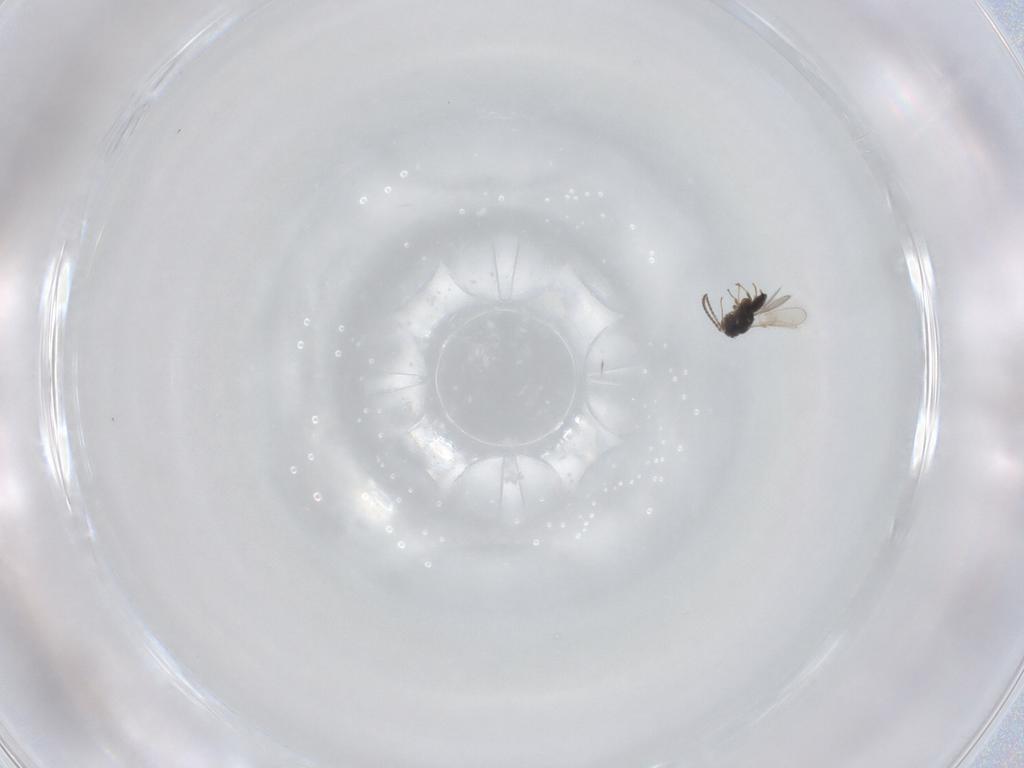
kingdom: Animalia
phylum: Arthropoda
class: Insecta
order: Hymenoptera
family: Scelionidae
